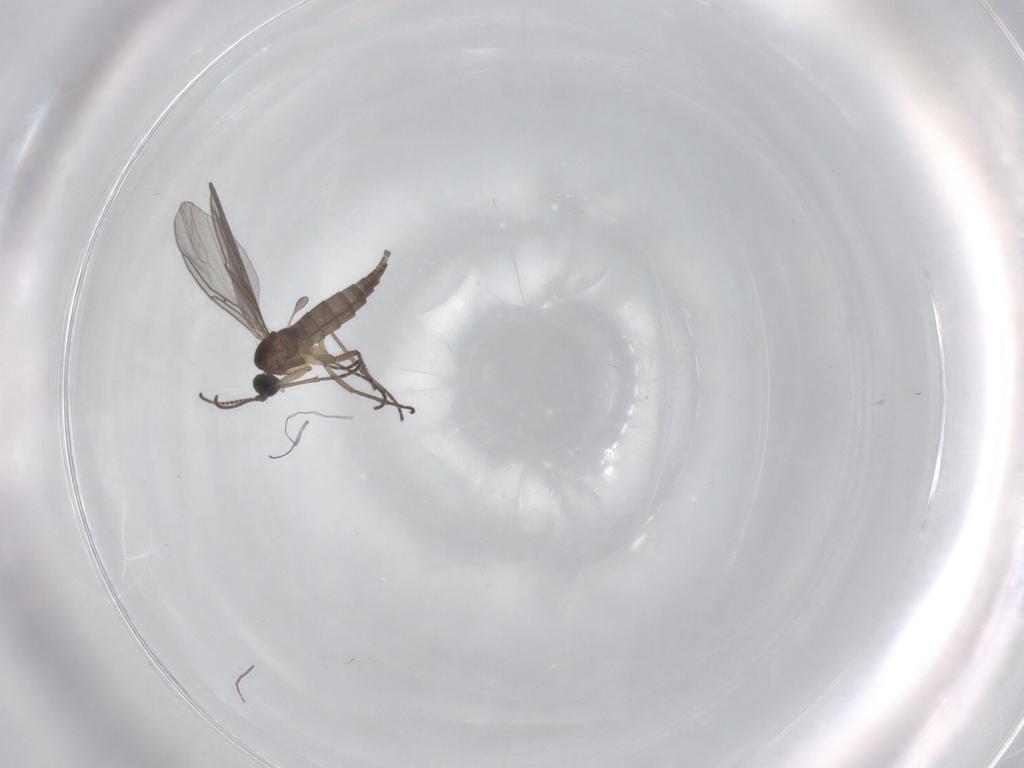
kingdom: Animalia
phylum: Arthropoda
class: Insecta
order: Diptera
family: Sciaridae
